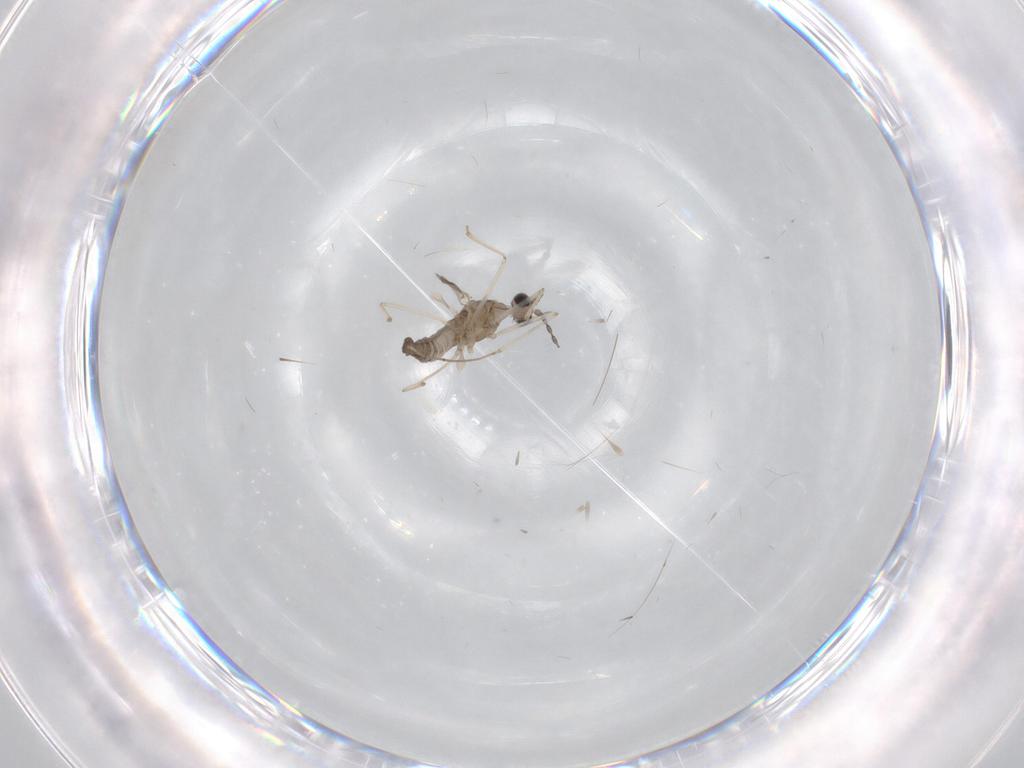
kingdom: Animalia
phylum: Arthropoda
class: Insecta
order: Diptera
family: Cecidomyiidae
